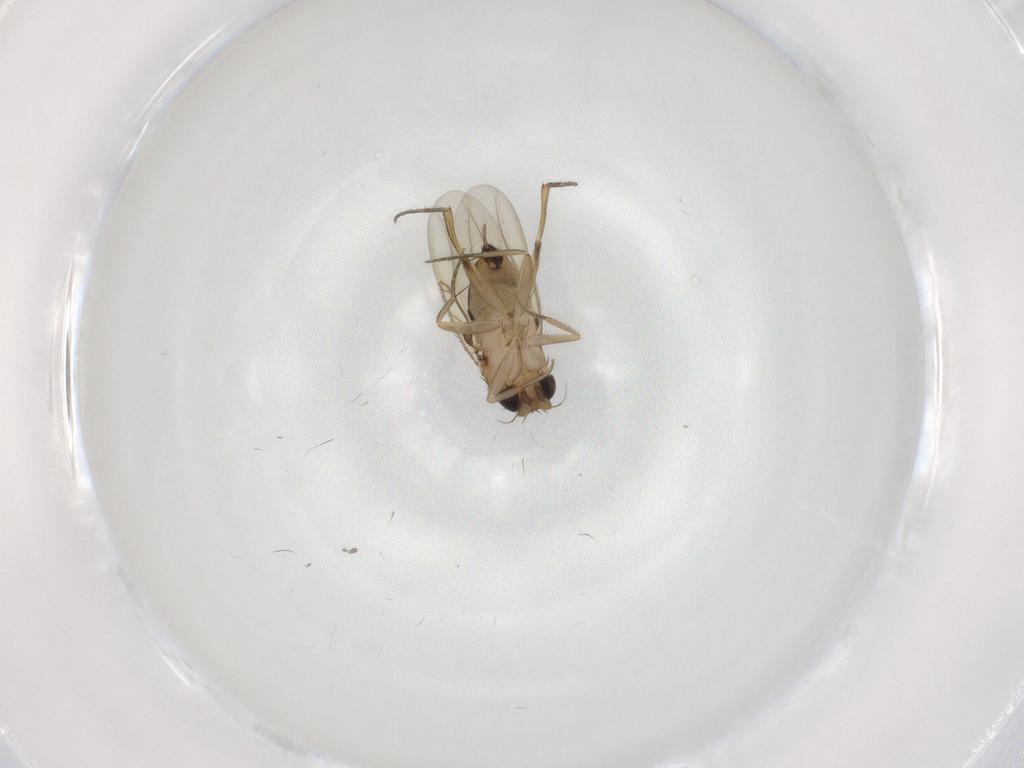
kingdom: Animalia
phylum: Arthropoda
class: Insecta
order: Diptera
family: Phoridae
